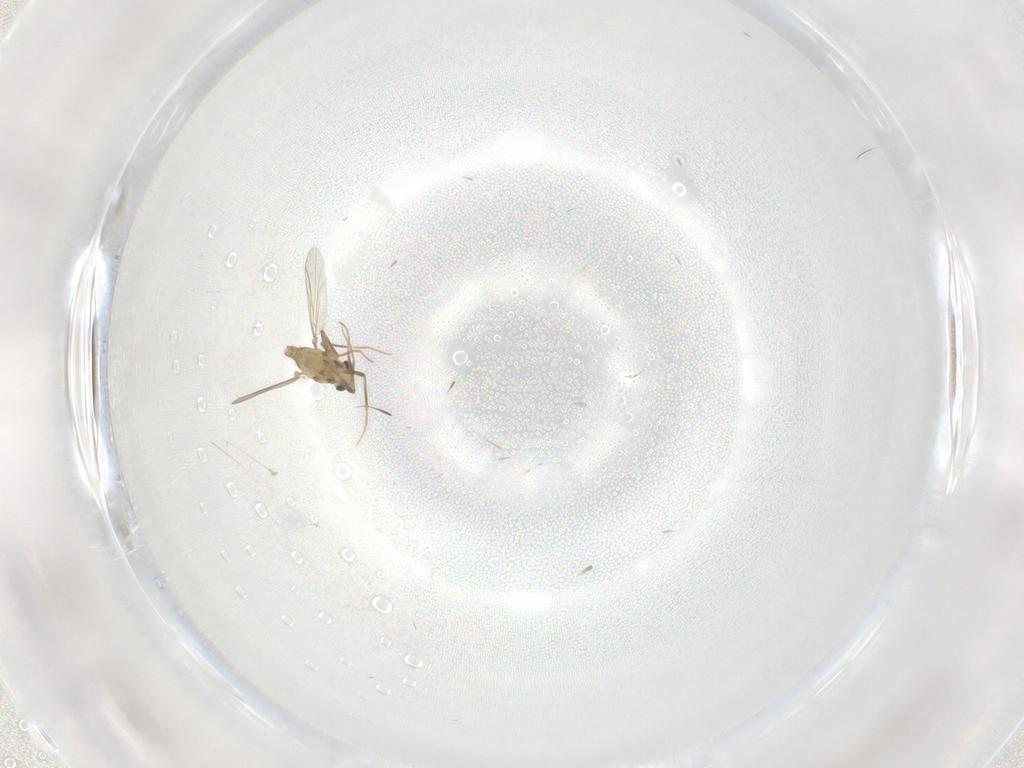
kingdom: Animalia
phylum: Arthropoda
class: Insecta
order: Diptera
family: Chironomidae
